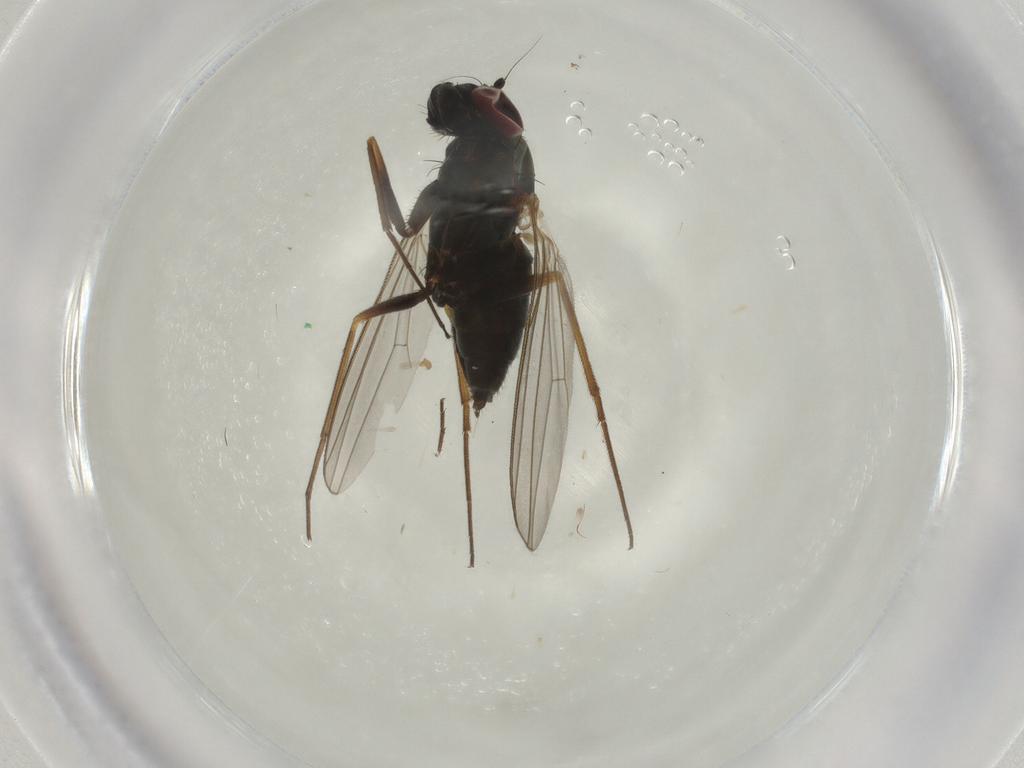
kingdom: Animalia
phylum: Arthropoda
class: Insecta
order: Diptera
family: Dolichopodidae
